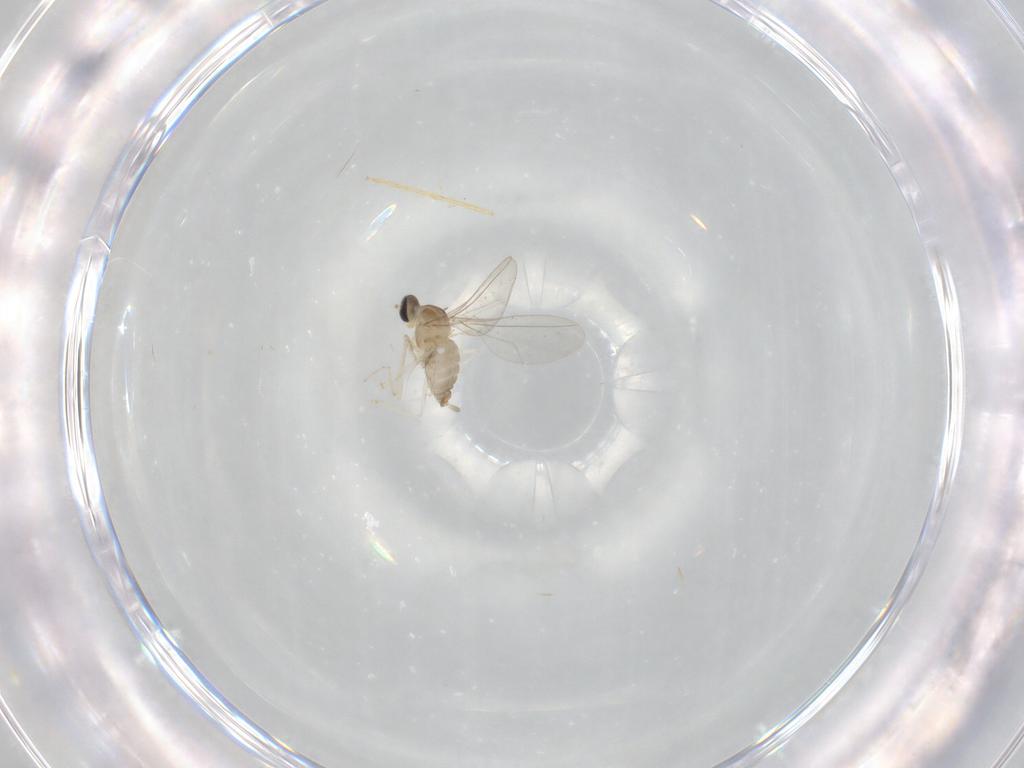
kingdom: Animalia
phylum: Arthropoda
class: Insecta
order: Diptera
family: Cecidomyiidae
